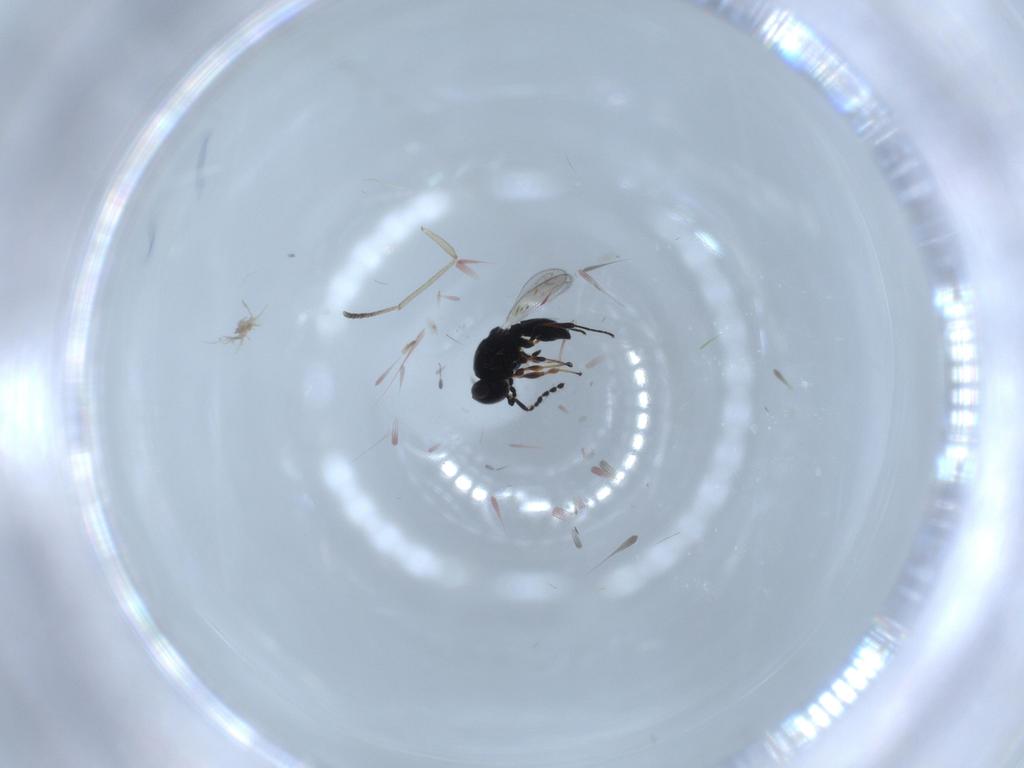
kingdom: Animalia
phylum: Arthropoda
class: Insecta
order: Hymenoptera
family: Platygastridae
